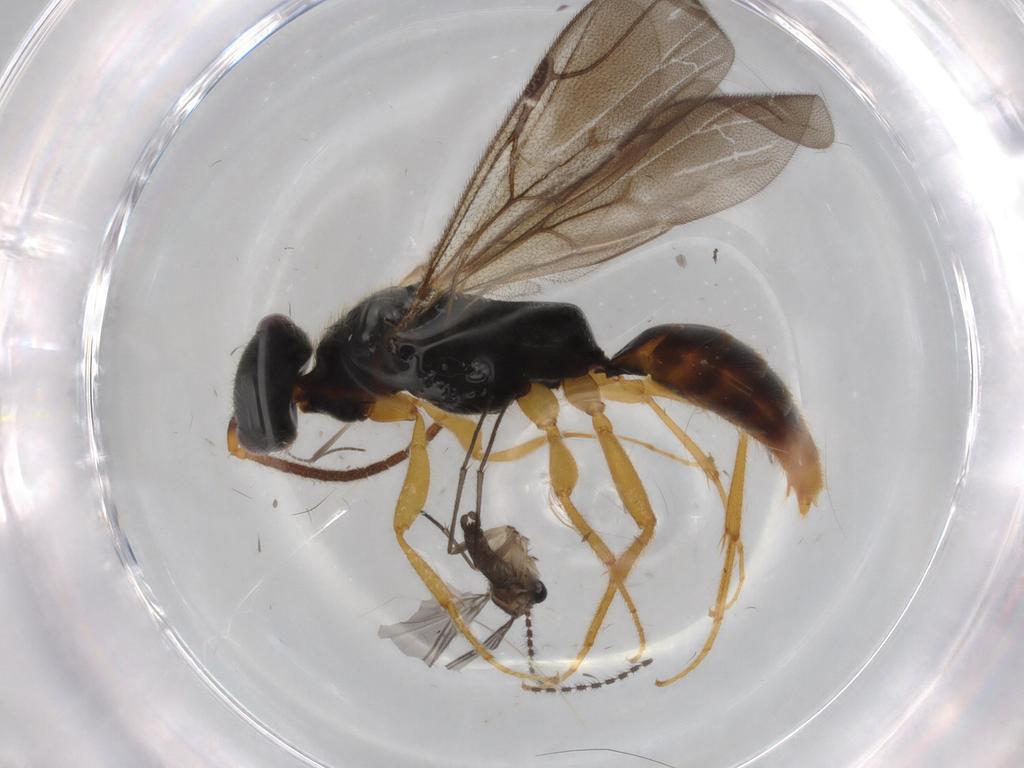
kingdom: Animalia
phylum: Arthropoda
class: Insecta
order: Hymenoptera
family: Bethylidae
